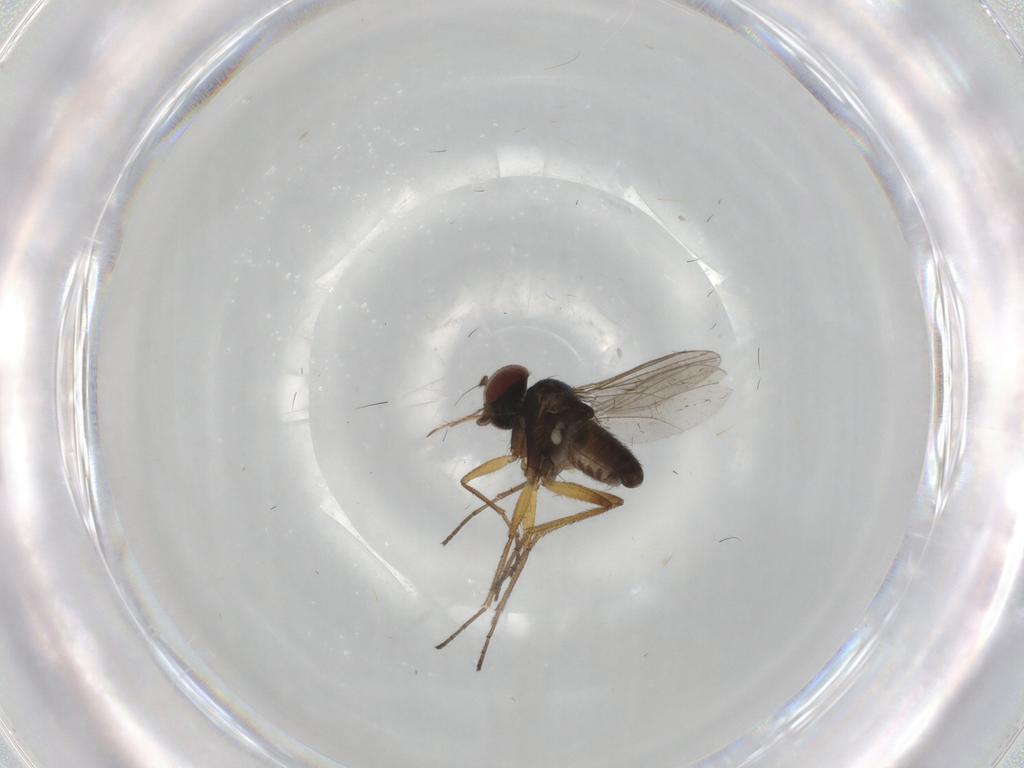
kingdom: Animalia
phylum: Arthropoda
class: Insecta
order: Diptera
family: Dolichopodidae
